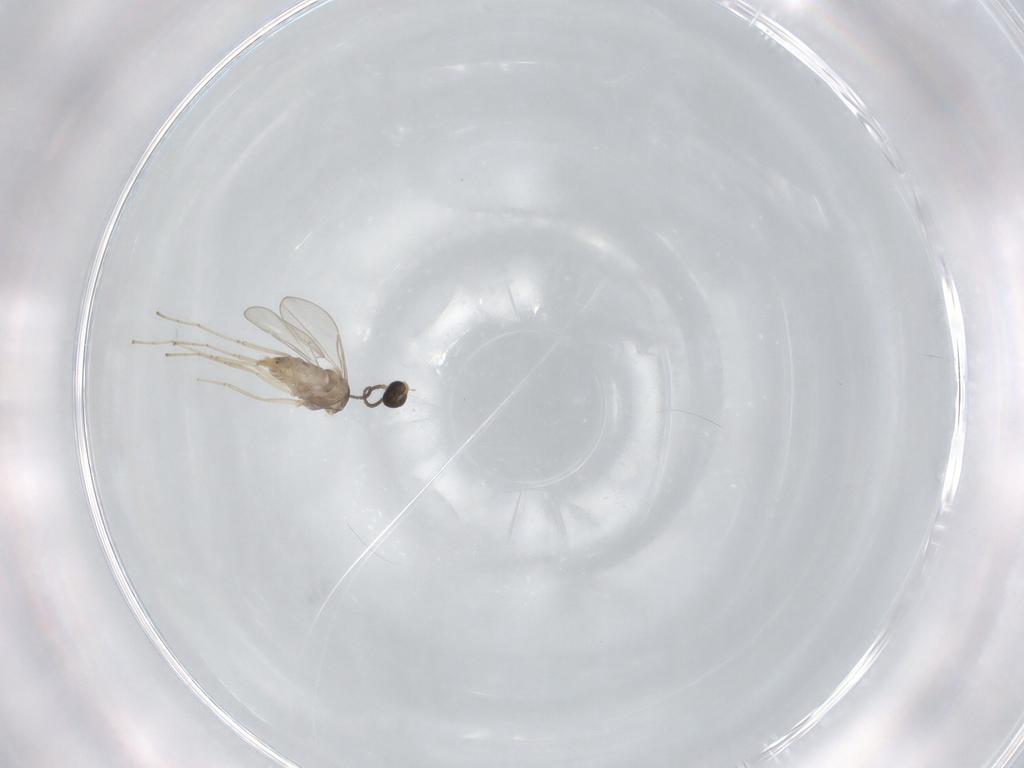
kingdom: Animalia
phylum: Arthropoda
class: Insecta
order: Diptera
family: Cecidomyiidae
